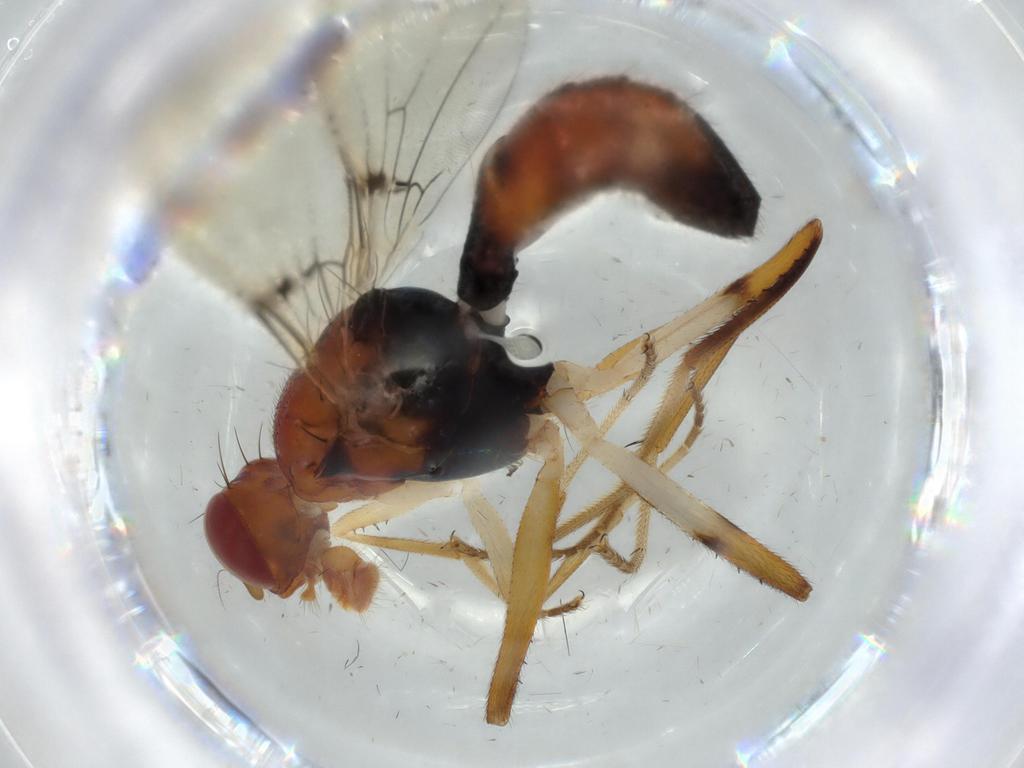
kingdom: Animalia
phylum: Arthropoda
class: Insecta
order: Diptera
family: Richardiidae
